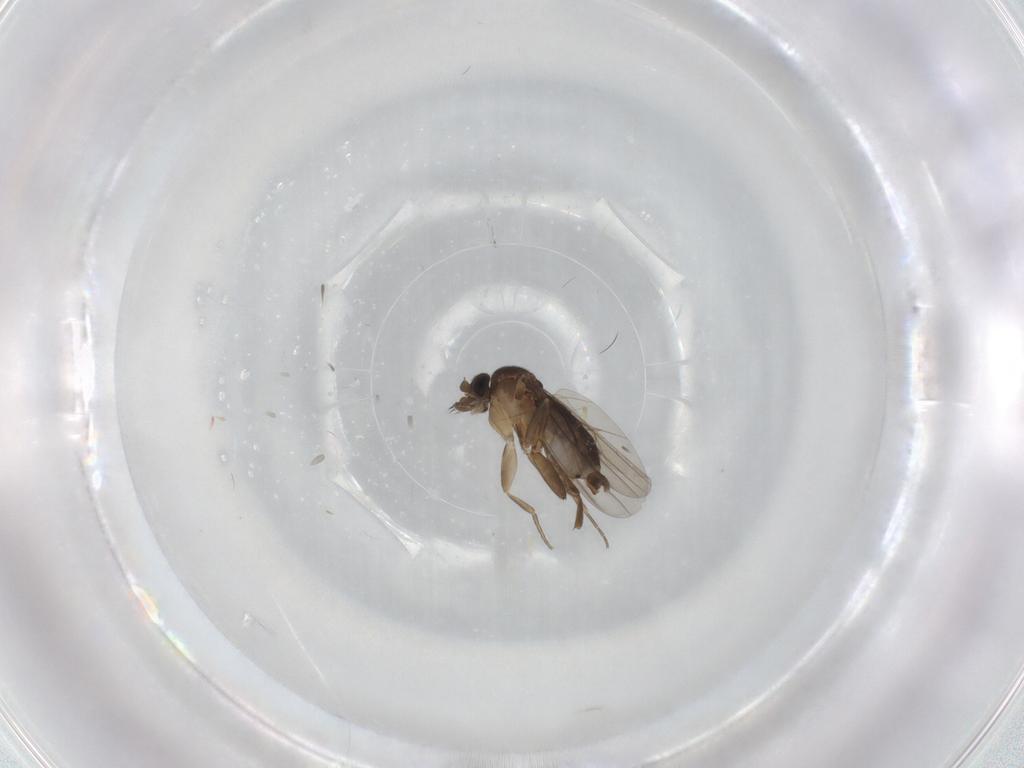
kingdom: Animalia
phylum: Arthropoda
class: Insecta
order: Diptera
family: Phoridae
